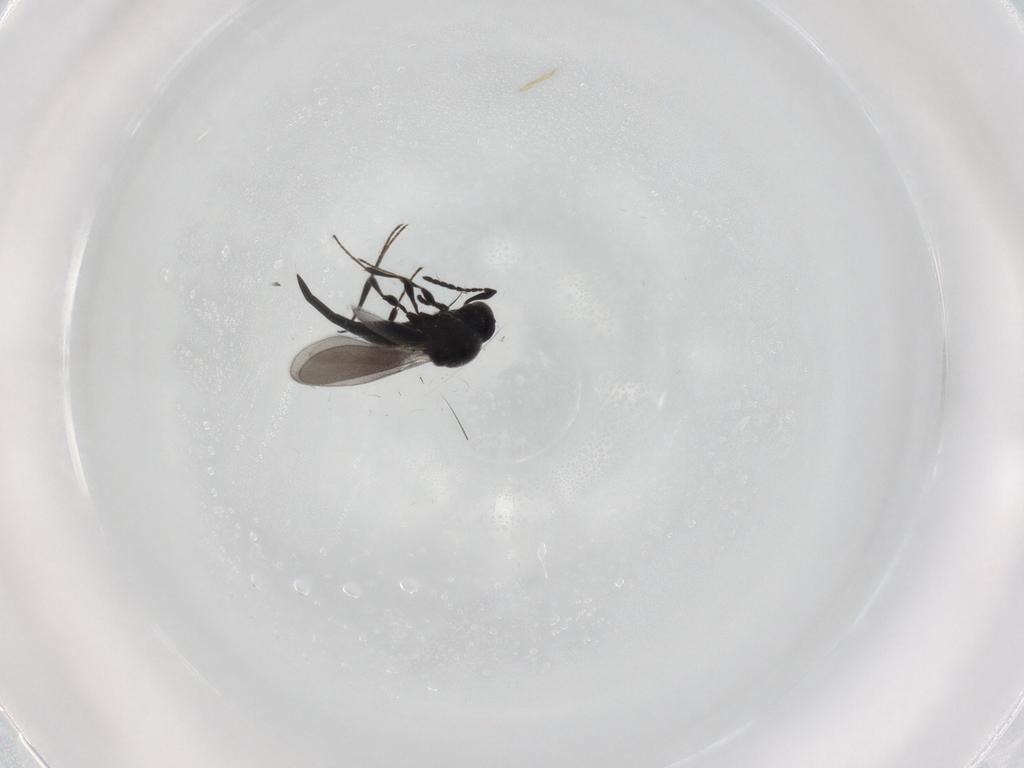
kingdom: Animalia
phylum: Arthropoda
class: Insecta
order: Hymenoptera
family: Platygastridae
